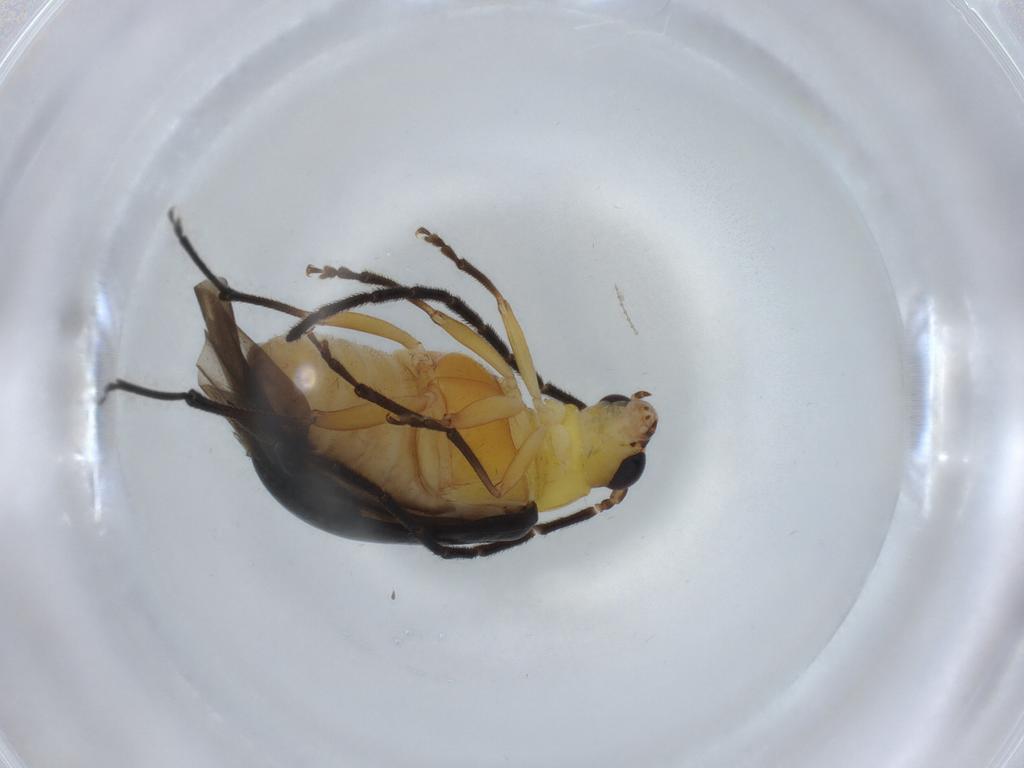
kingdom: Animalia
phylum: Arthropoda
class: Insecta
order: Coleoptera
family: Chrysomelidae
